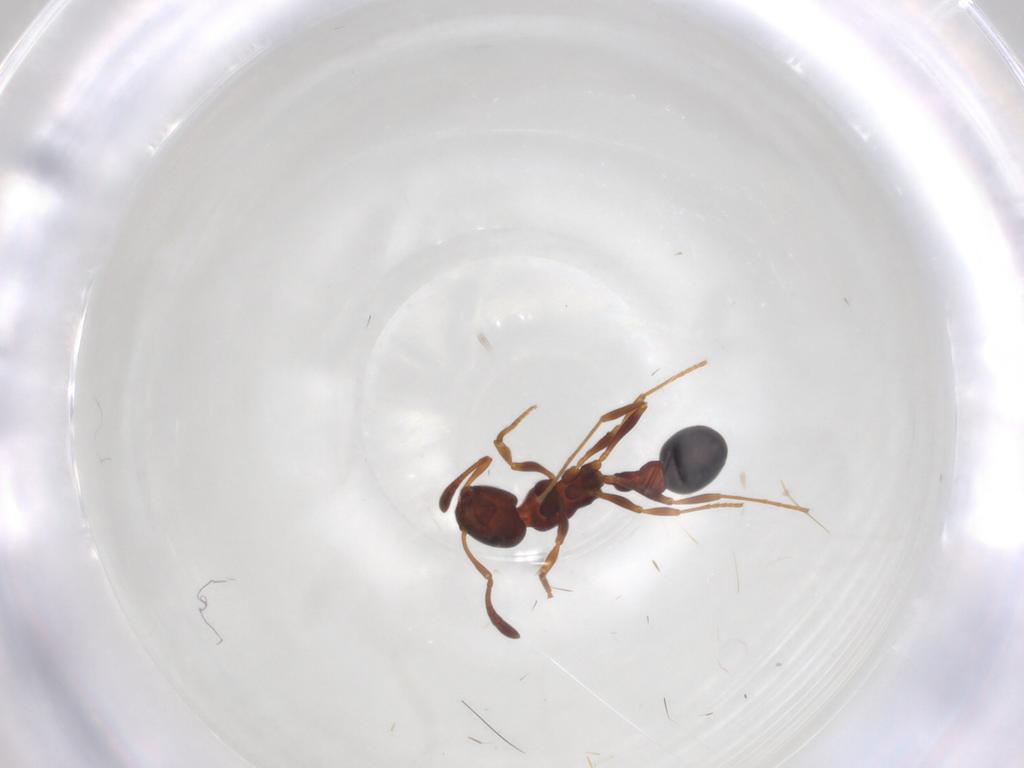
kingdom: Animalia
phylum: Arthropoda
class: Insecta
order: Hymenoptera
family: Formicidae
